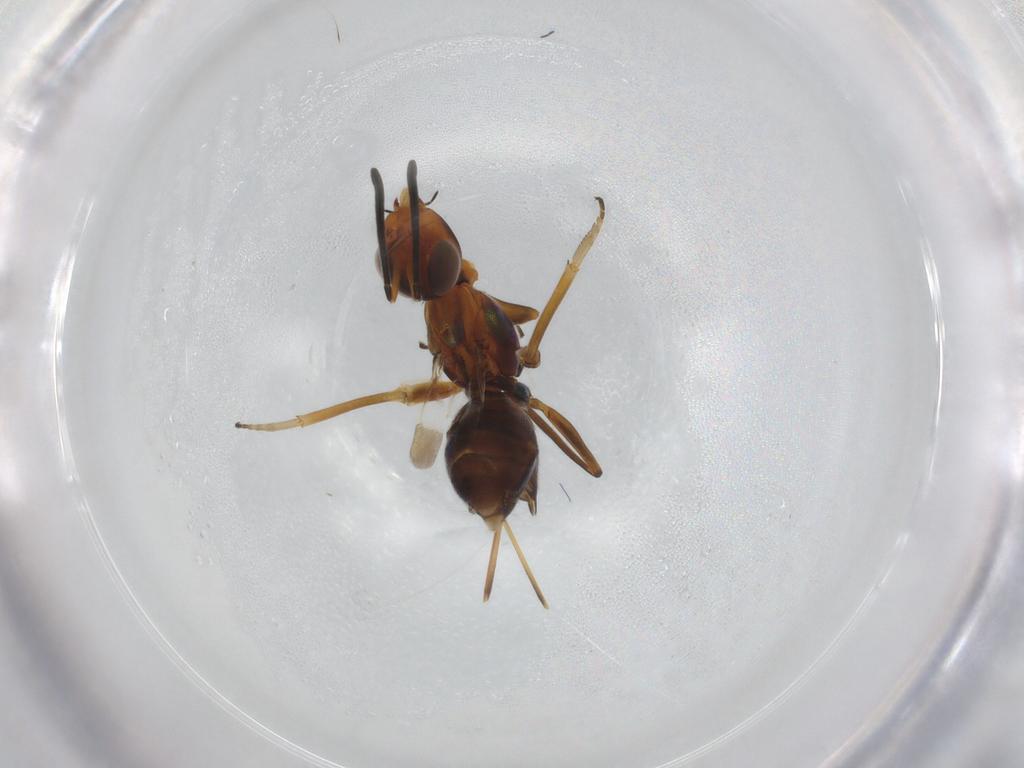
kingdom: Animalia
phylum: Arthropoda
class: Insecta
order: Hymenoptera
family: Eupelmidae
